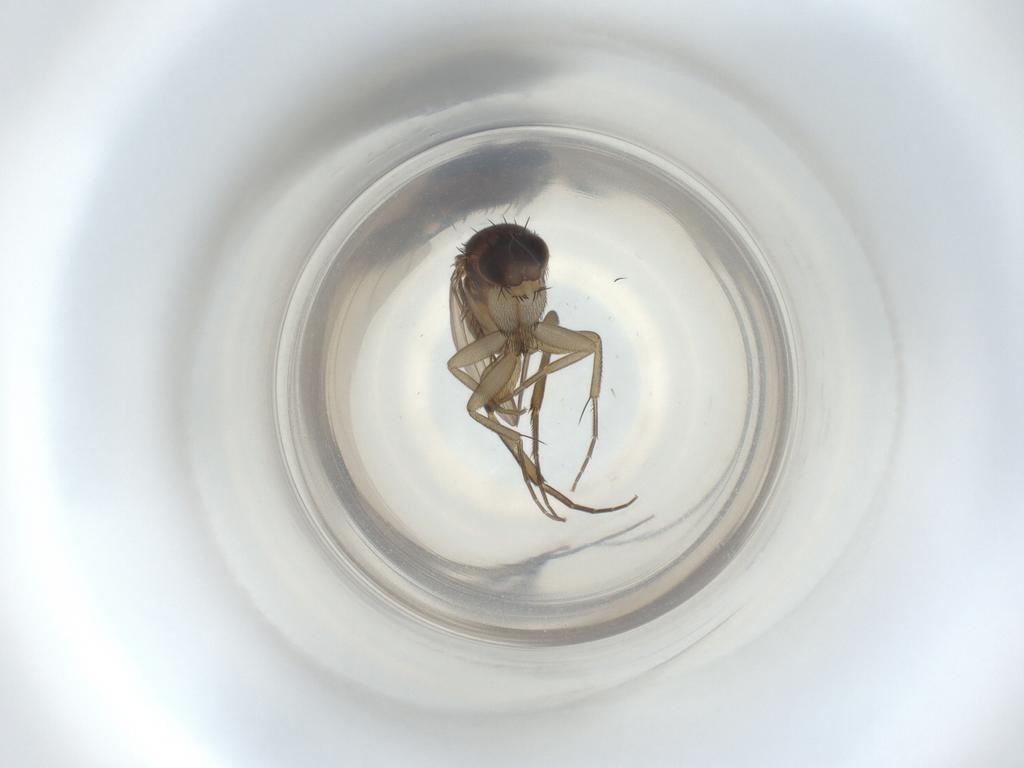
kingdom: Animalia
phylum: Arthropoda
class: Insecta
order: Diptera
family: Phoridae
